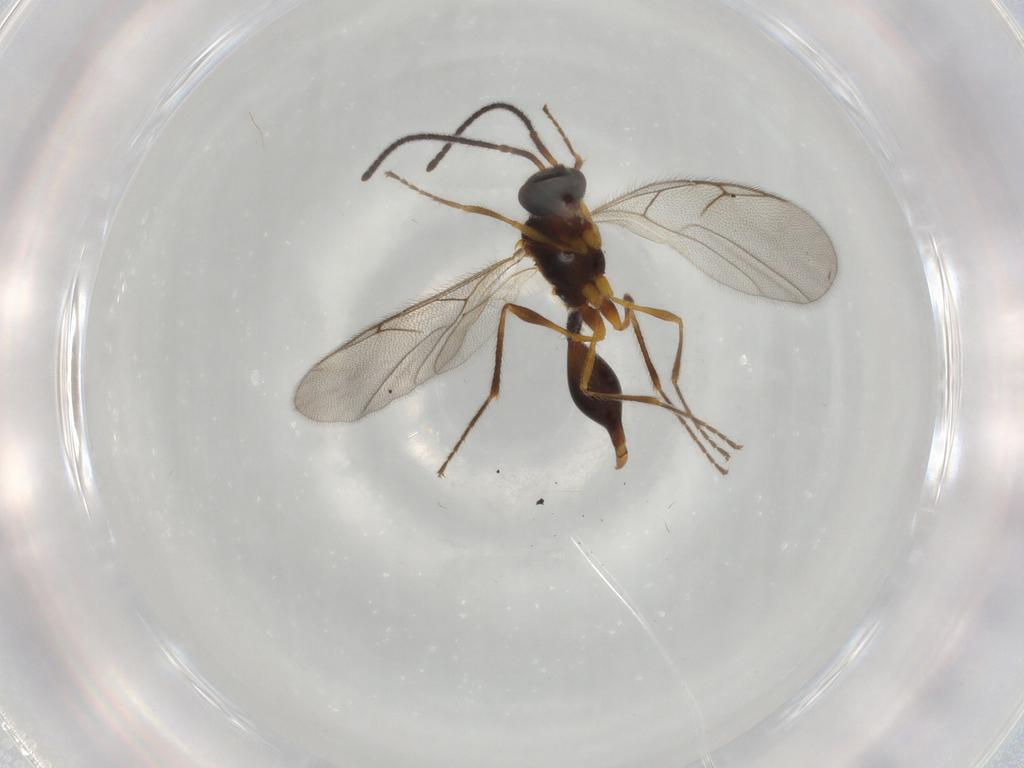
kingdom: Animalia
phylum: Arthropoda
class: Insecta
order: Hymenoptera
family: Diapriidae
